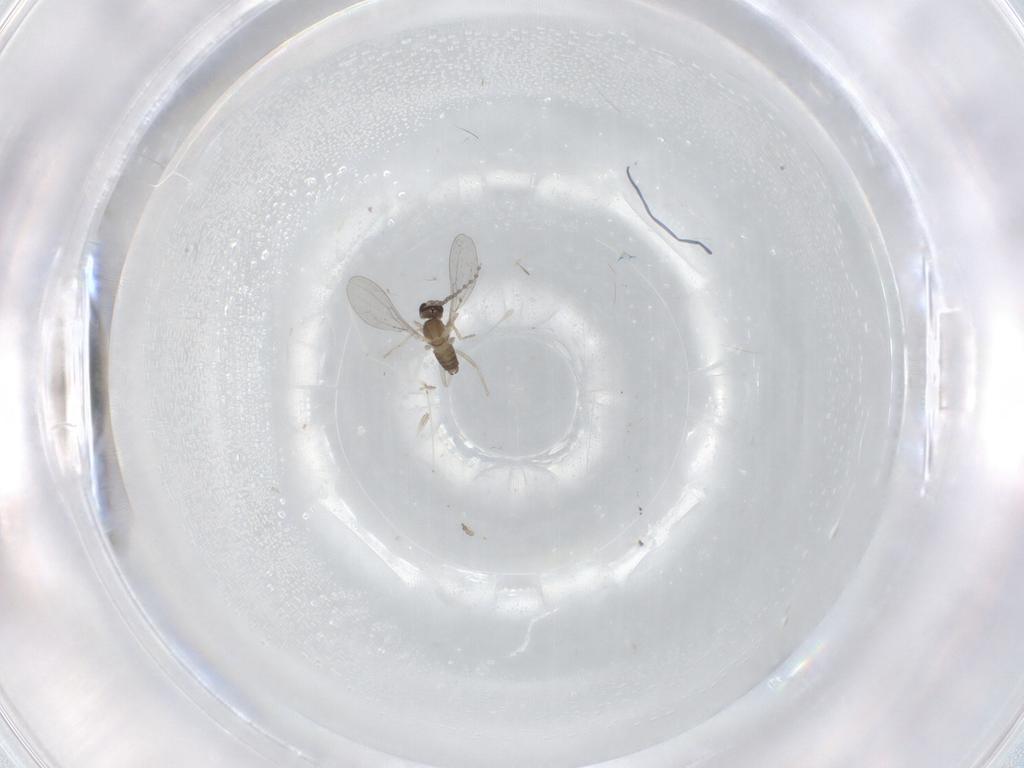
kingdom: Animalia
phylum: Arthropoda
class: Insecta
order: Diptera
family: Cecidomyiidae
